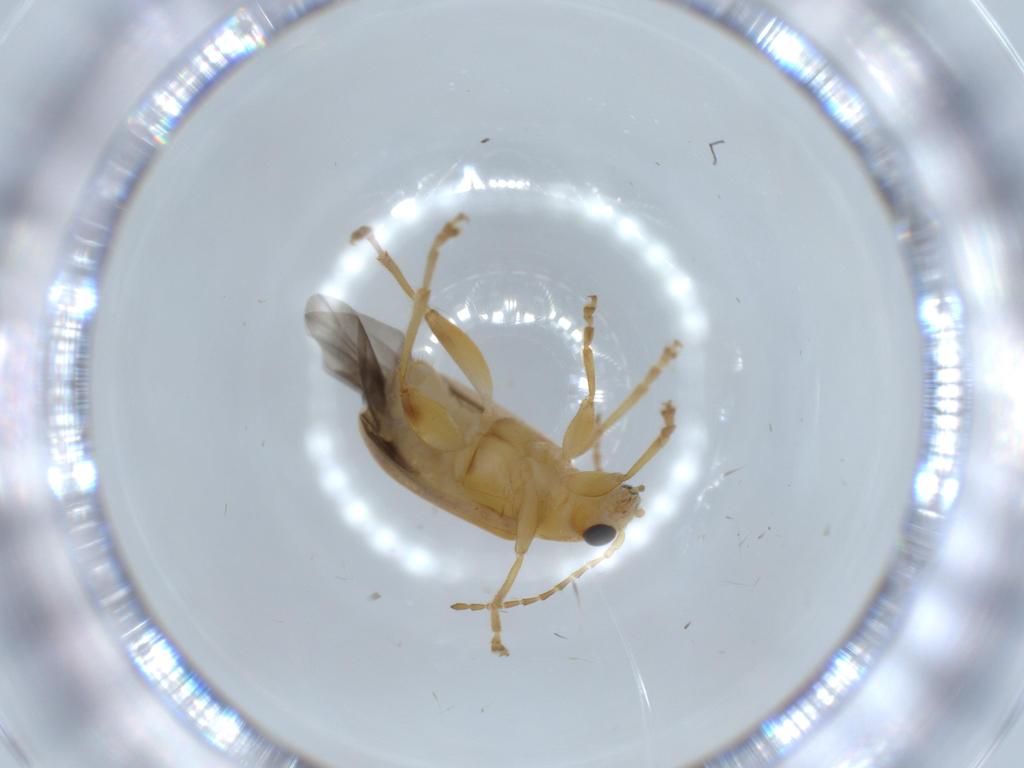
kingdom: Animalia
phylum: Arthropoda
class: Insecta
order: Coleoptera
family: Chrysomelidae
